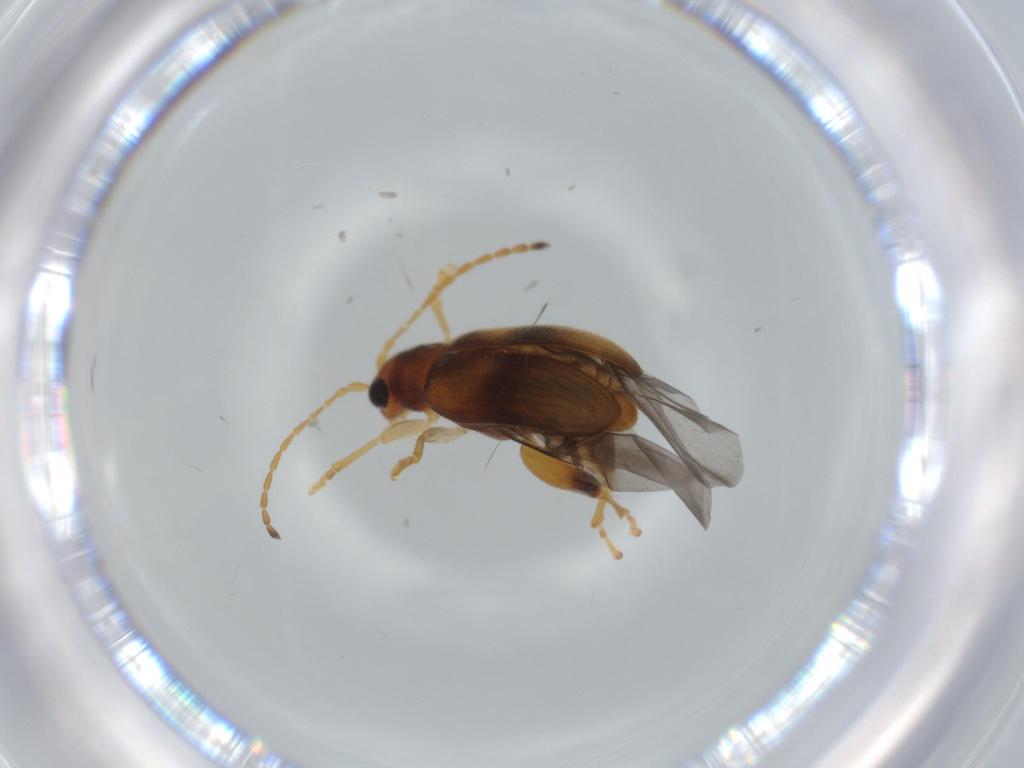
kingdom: Animalia
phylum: Arthropoda
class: Insecta
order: Coleoptera
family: Chrysomelidae
